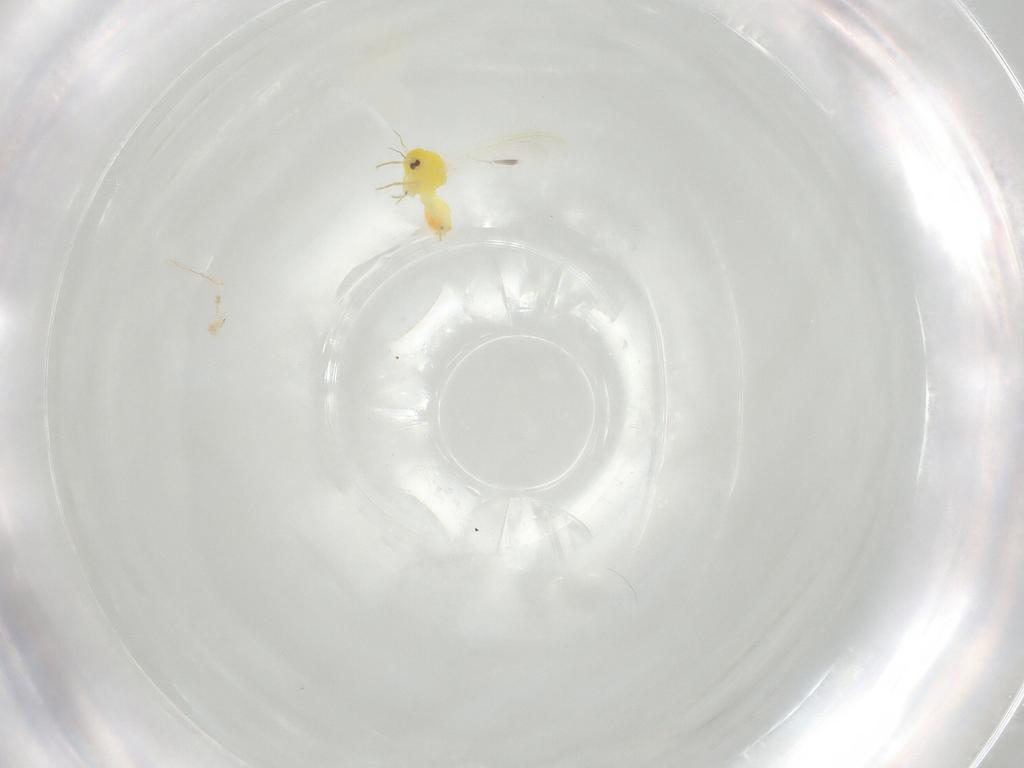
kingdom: Animalia
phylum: Arthropoda
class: Insecta
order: Hemiptera
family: Aleyrodidae
